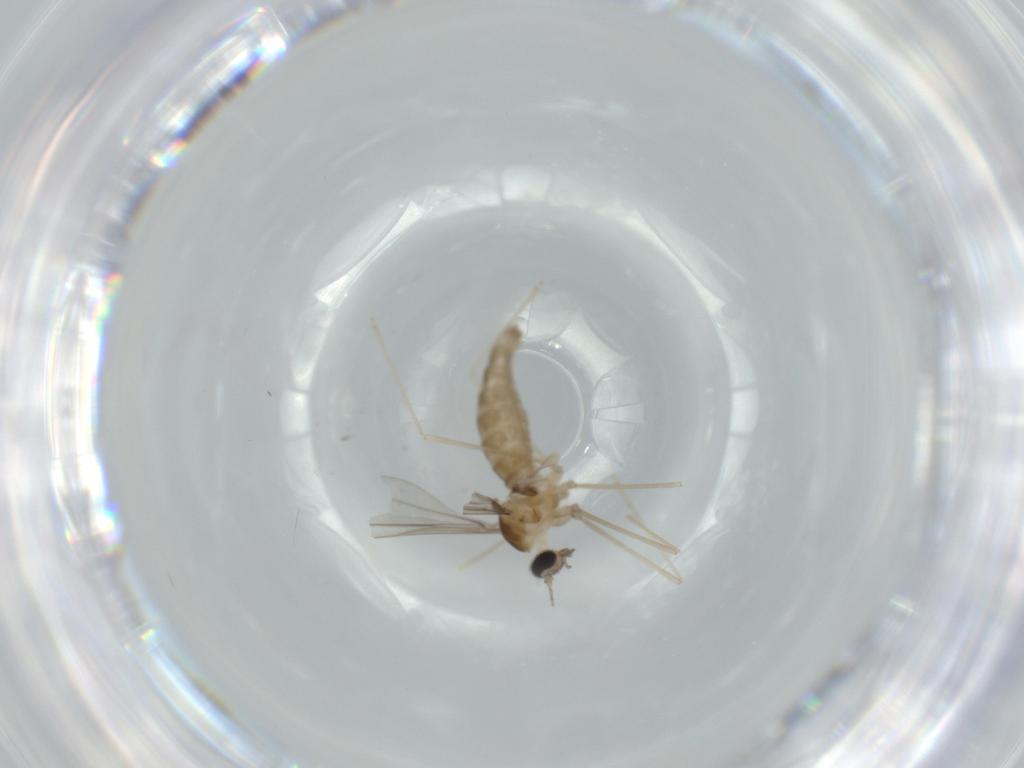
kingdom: Animalia
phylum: Arthropoda
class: Insecta
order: Diptera
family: Cecidomyiidae
